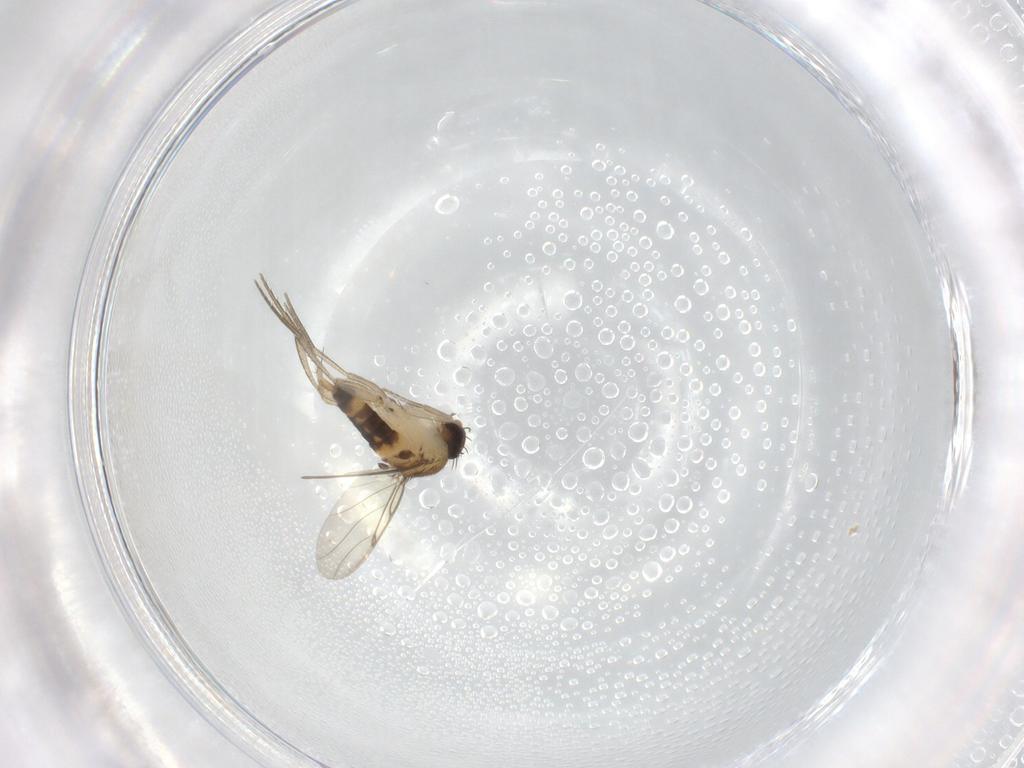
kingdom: Animalia
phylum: Arthropoda
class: Insecta
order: Diptera
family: Phoridae
